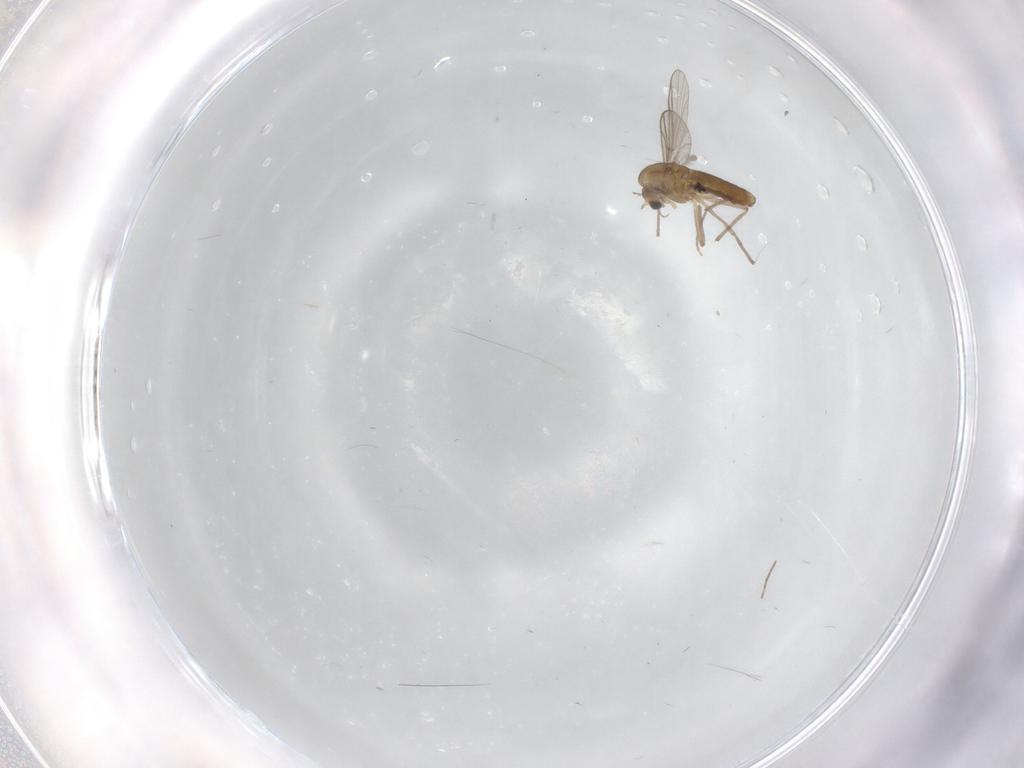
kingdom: Animalia
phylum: Arthropoda
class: Insecta
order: Diptera
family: Chironomidae
